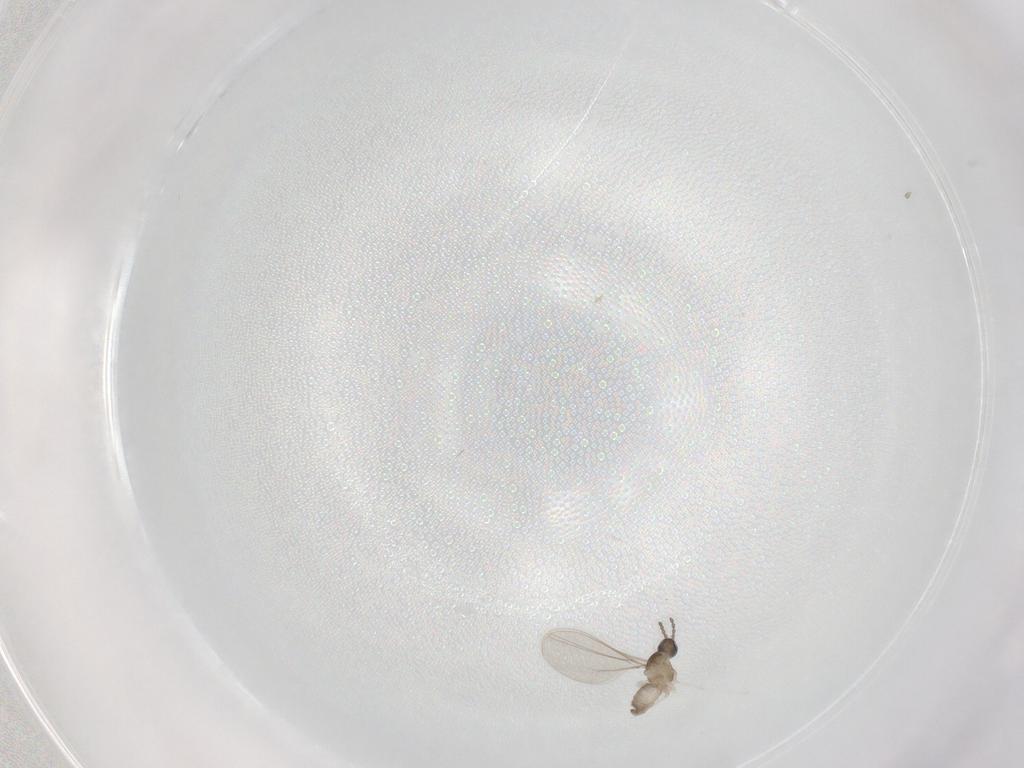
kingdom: Animalia
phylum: Arthropoda
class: Insecta
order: Diptera
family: Cecidomyiidae
